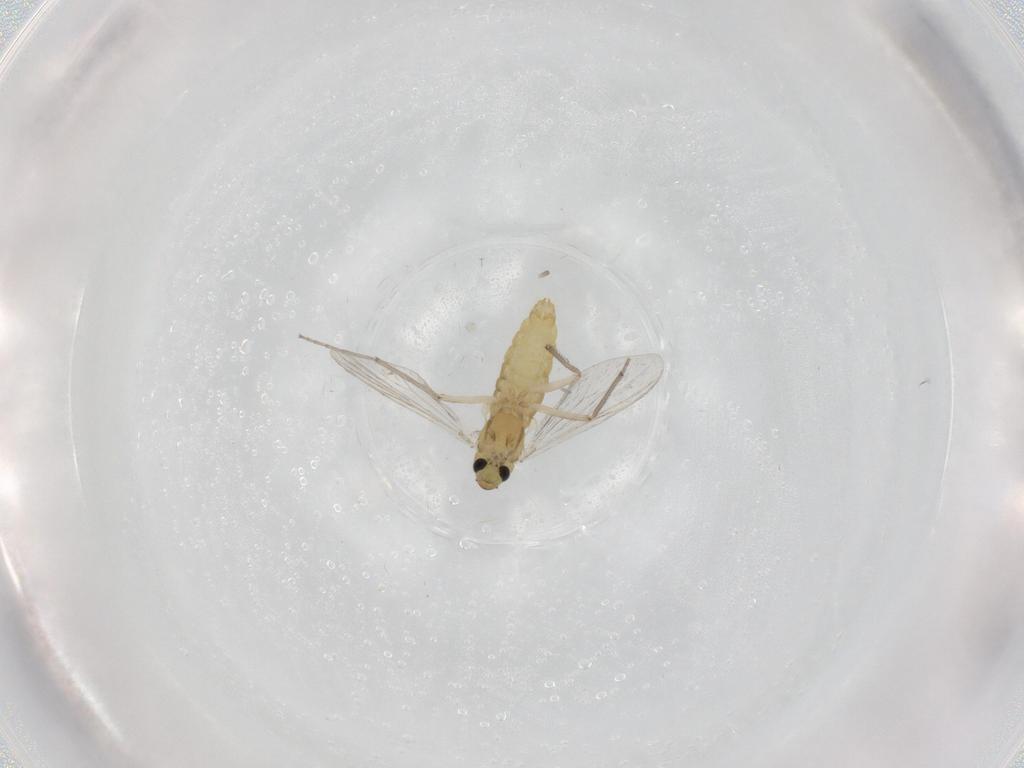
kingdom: Animalia
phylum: Arthropoda
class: Insecta
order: Diptera
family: Chironomidae
